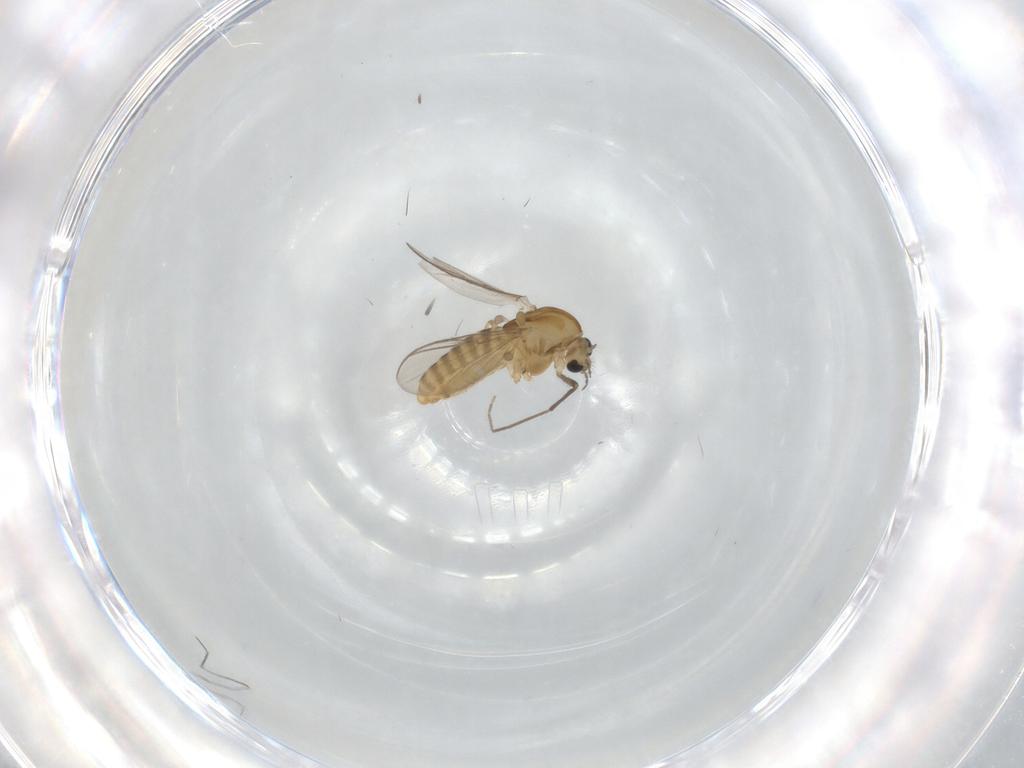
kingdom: Animalia
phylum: Arthropoda
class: Insecta
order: Diptera
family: Chironomidae
